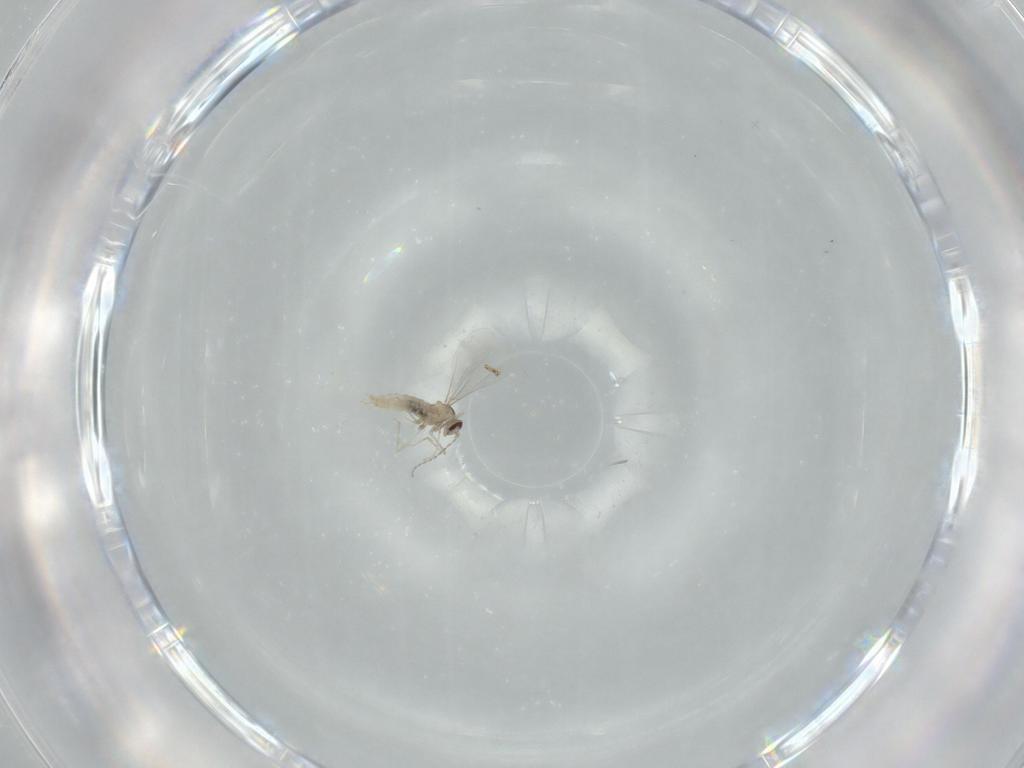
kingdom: Animalia
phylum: Arthropoda
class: Insecta
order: Diptera
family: Cecidomyiidae
